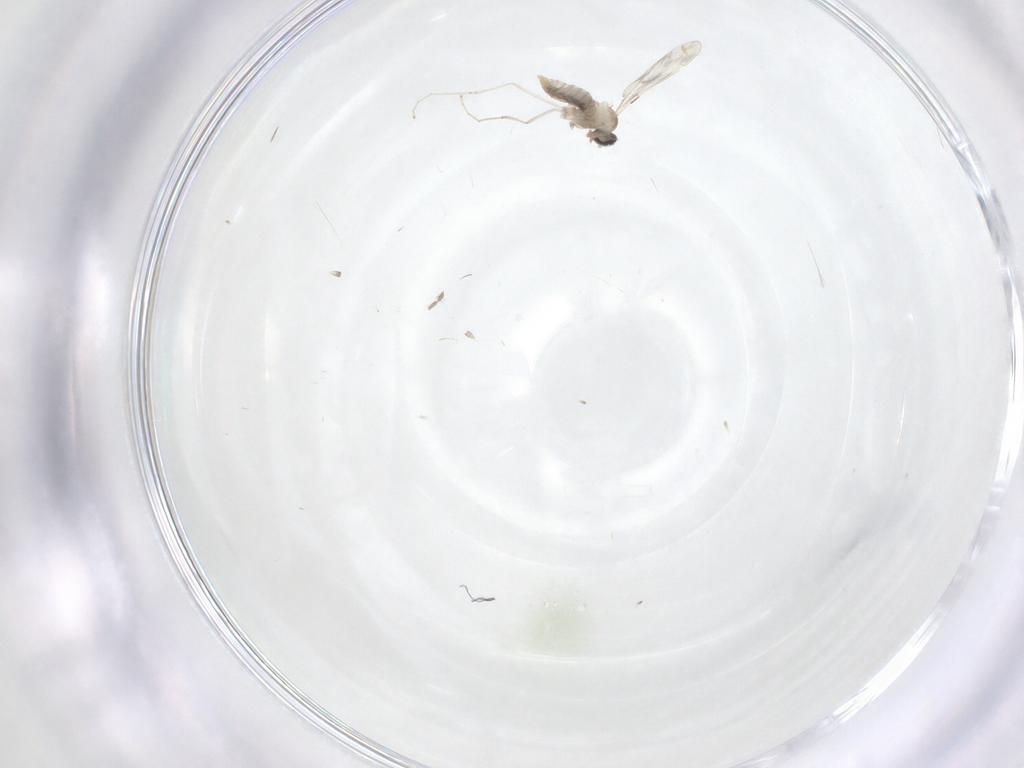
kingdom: Animalia
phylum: Arthropoda
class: Insecta
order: Diptera
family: Cecidomyiidae
